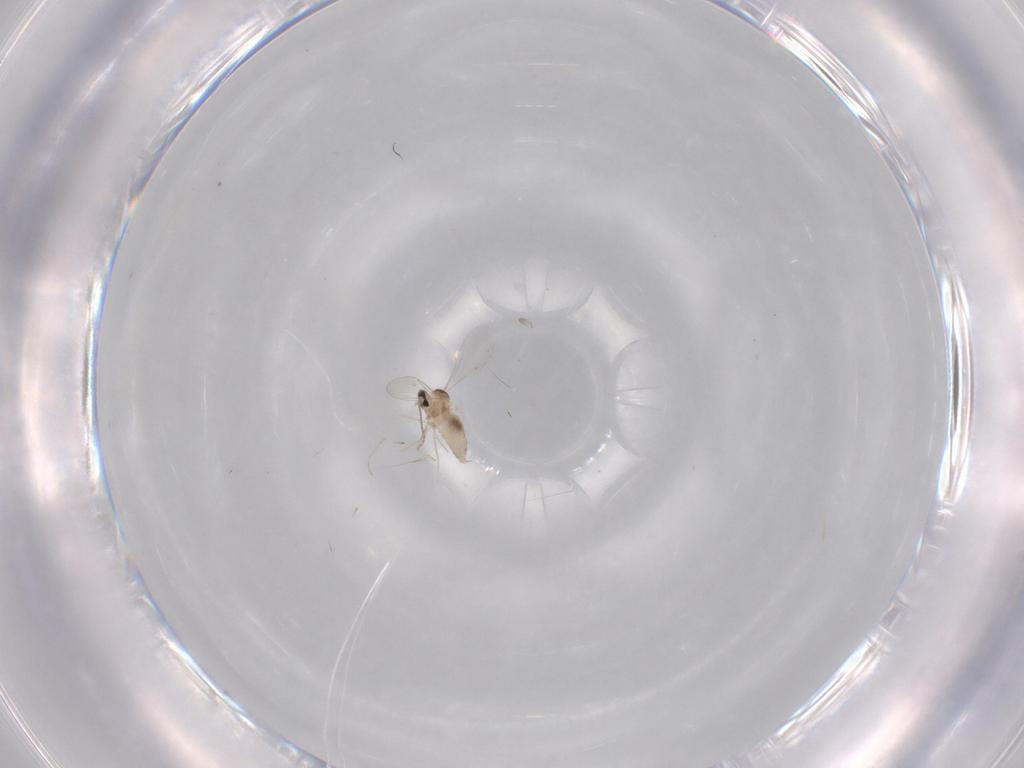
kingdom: Animalia
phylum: Arthropoda
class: Insecta
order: Diptera
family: Cecidomyiidae
